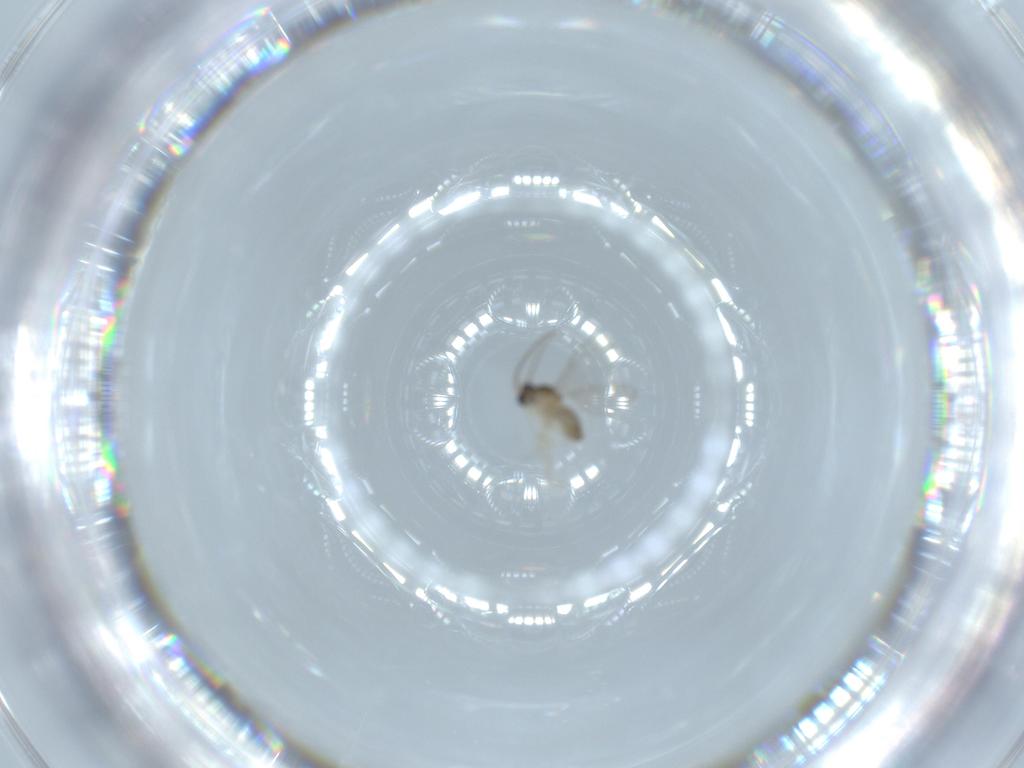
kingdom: Animalia
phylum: Arthropoda
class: Insecta
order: Diptera
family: Cecidomyiidae
